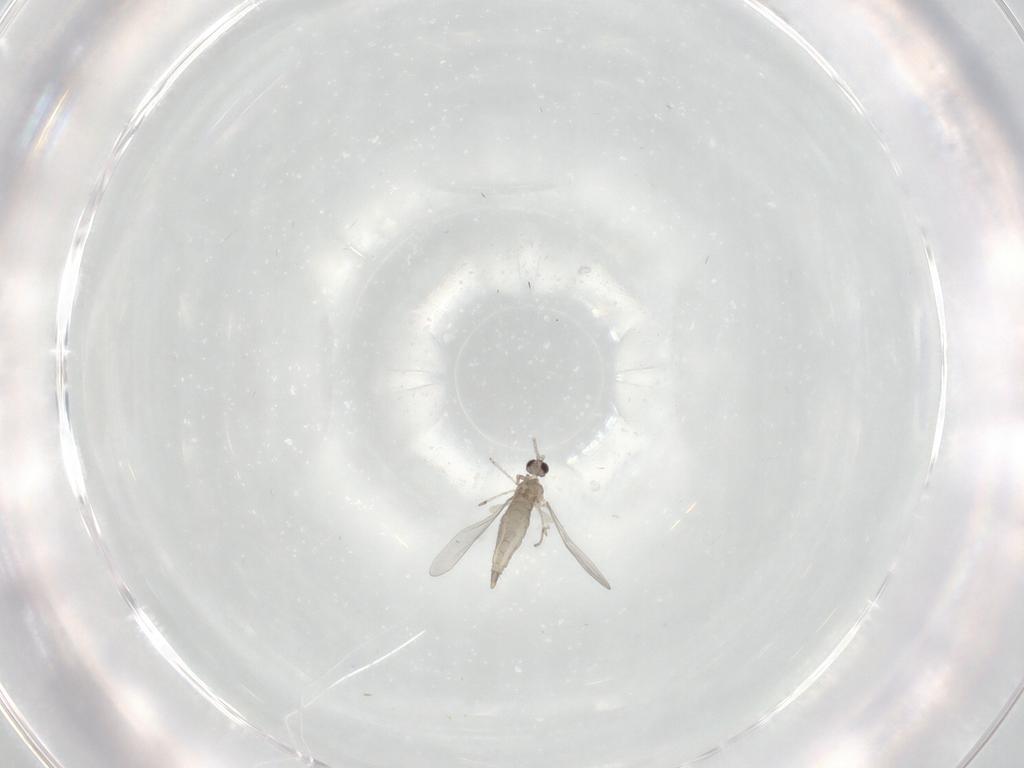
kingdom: Animalia
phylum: Arthropoda
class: Insecta
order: Diptera
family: Cecidomyiidae
